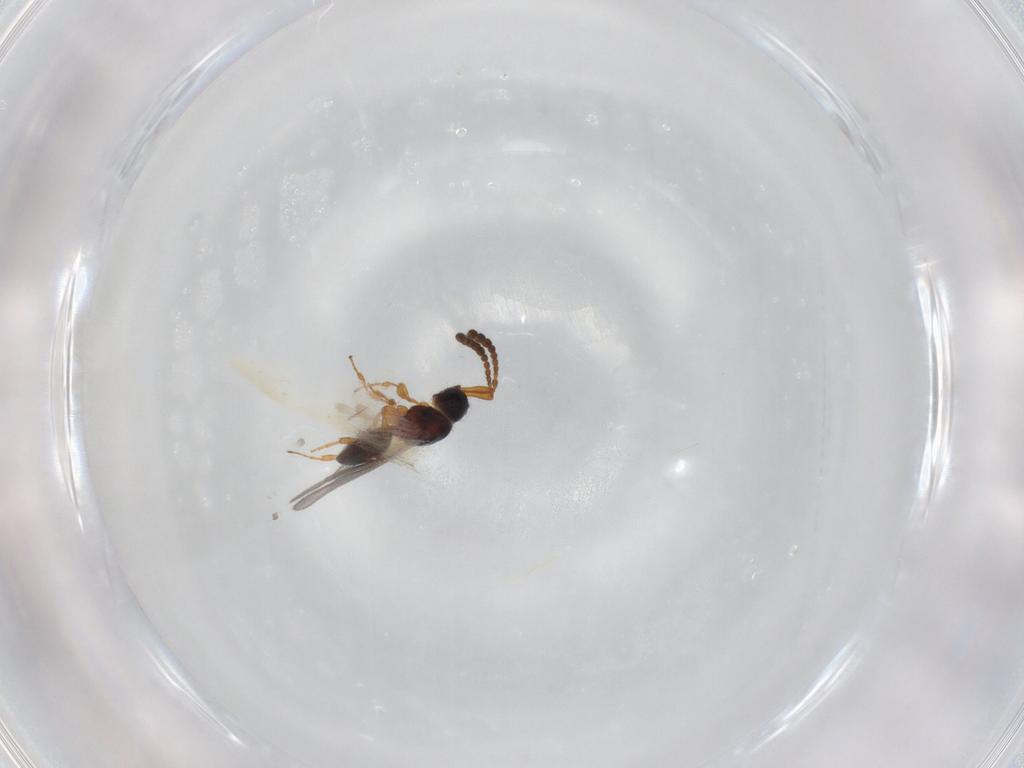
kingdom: Animalia
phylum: Arthropoda
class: Insecta
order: Hymenoptera
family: Diapriidae
